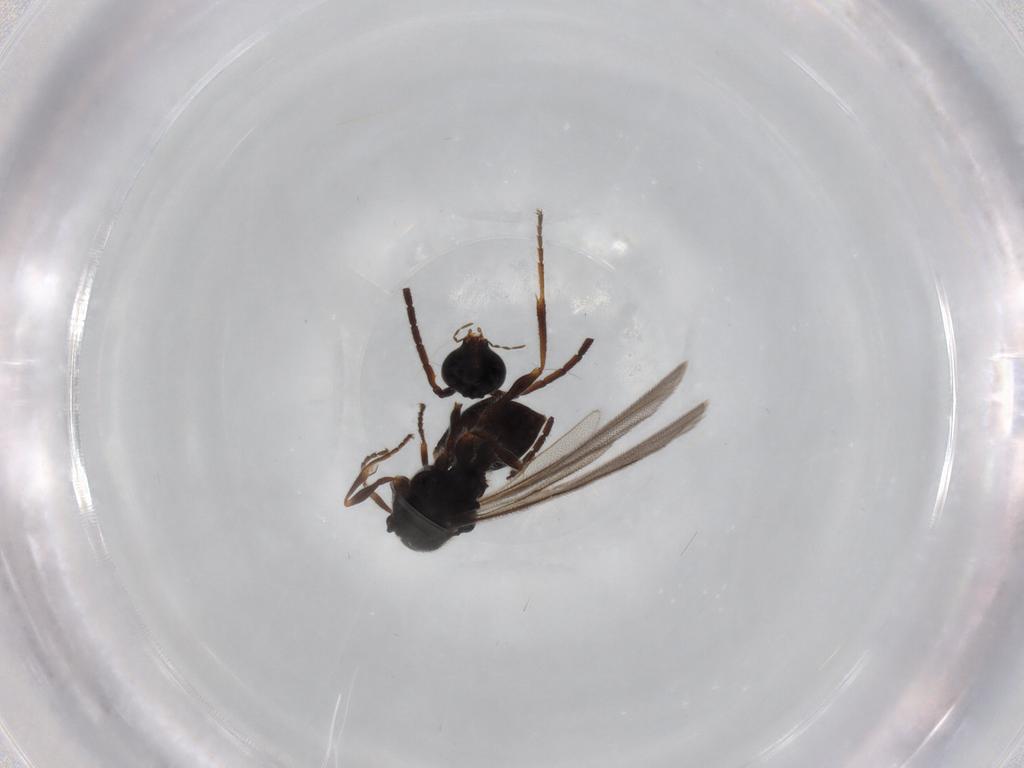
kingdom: Animalia
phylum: Arthropoda
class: Insecta
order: Hymenoptera
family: Diapriidae
